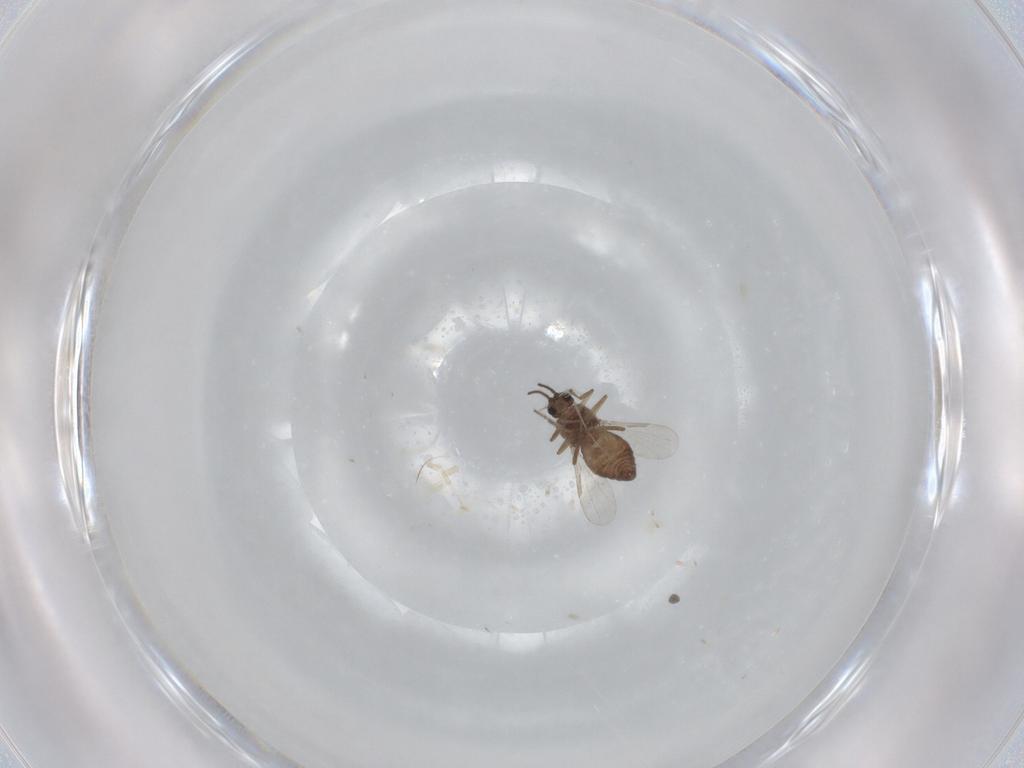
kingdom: Animalia
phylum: Arthropoda
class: Insecta
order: Diptera
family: Ceratopogonidae
